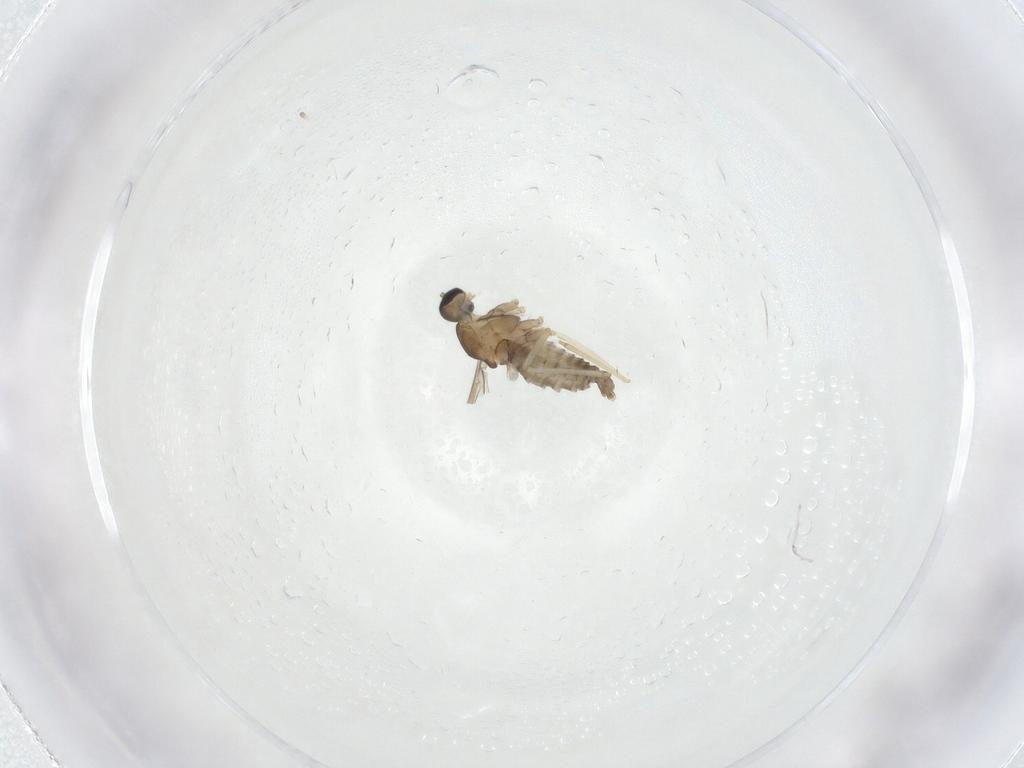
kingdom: Animalia
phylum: Arthropoda
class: Insecta
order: Diptera
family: Cecidomyiidae
